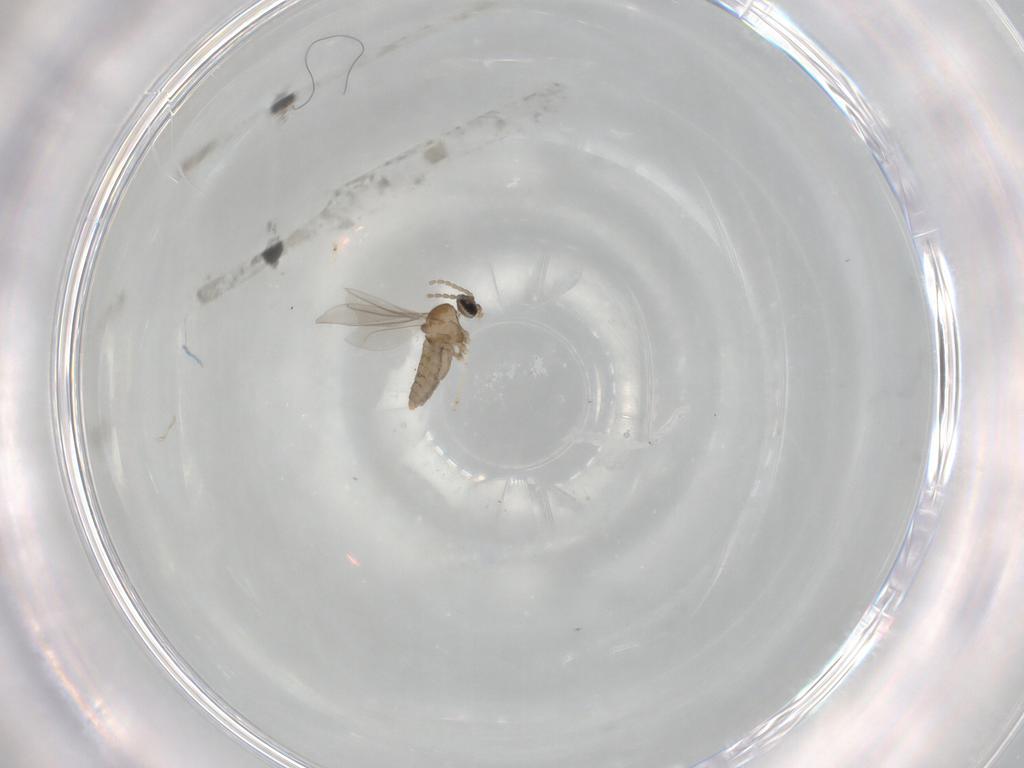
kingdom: Animalia
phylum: Arthropoda
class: Insecta
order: Diptera
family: Cecidomyiidae
